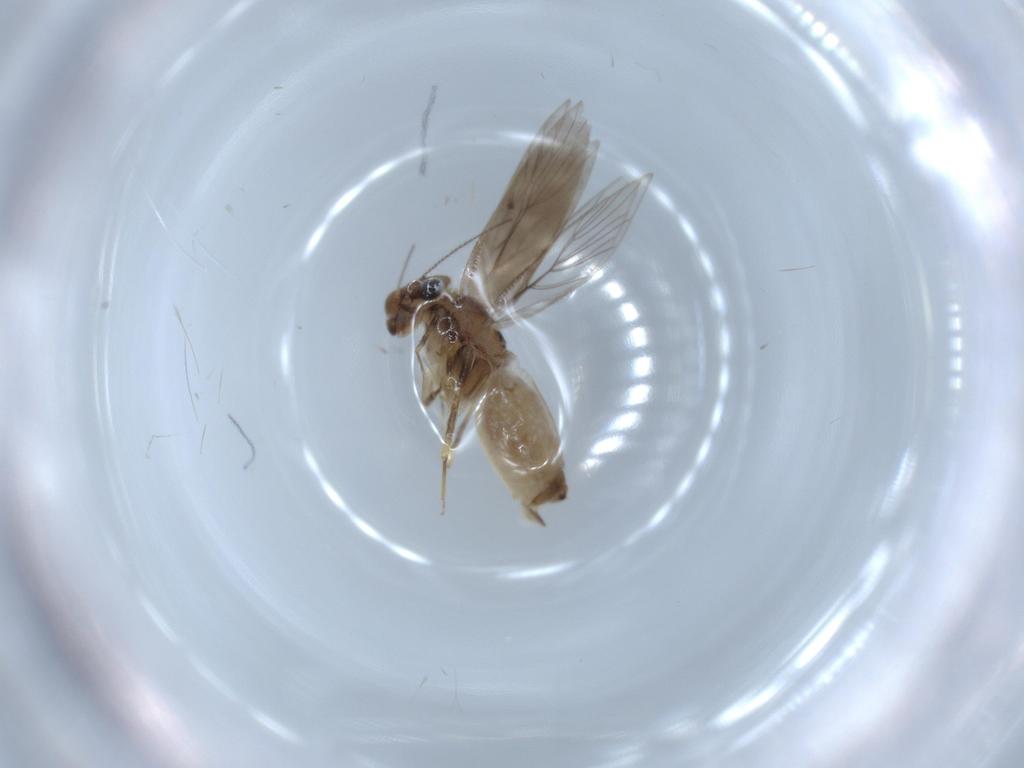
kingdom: Animalia
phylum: Arthropoda
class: Insecta
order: Psocodea
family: Lepidopsocidae
